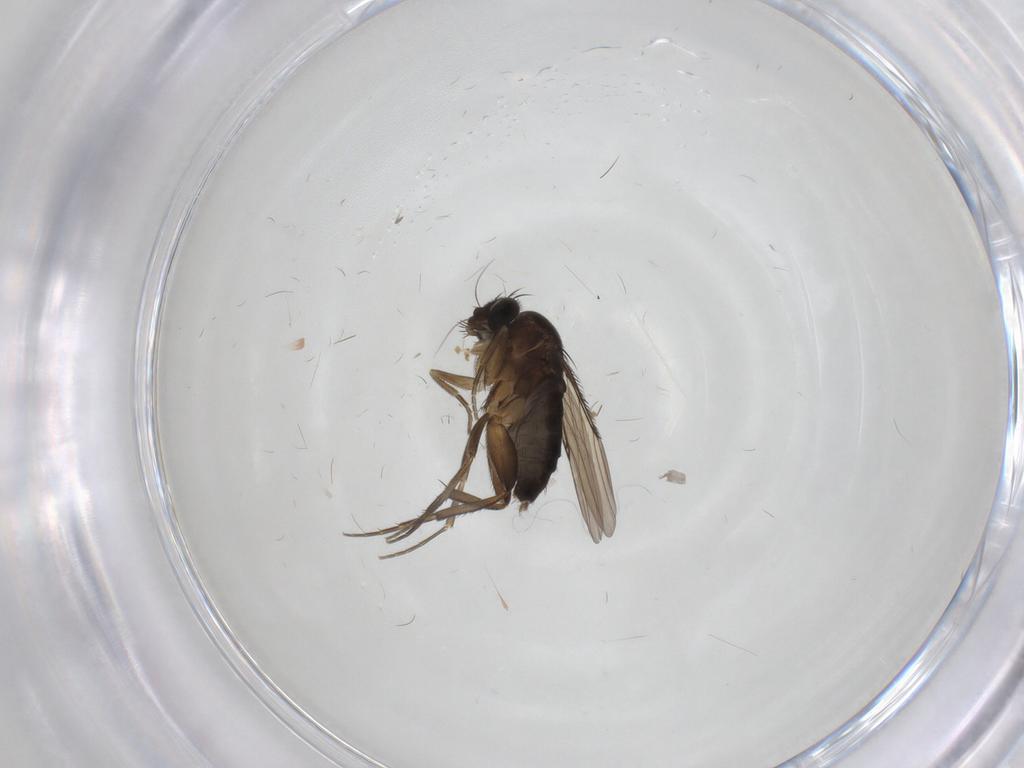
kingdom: Animalia
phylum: Arthropoda
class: Insecta
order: Diptera
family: Phoridae
